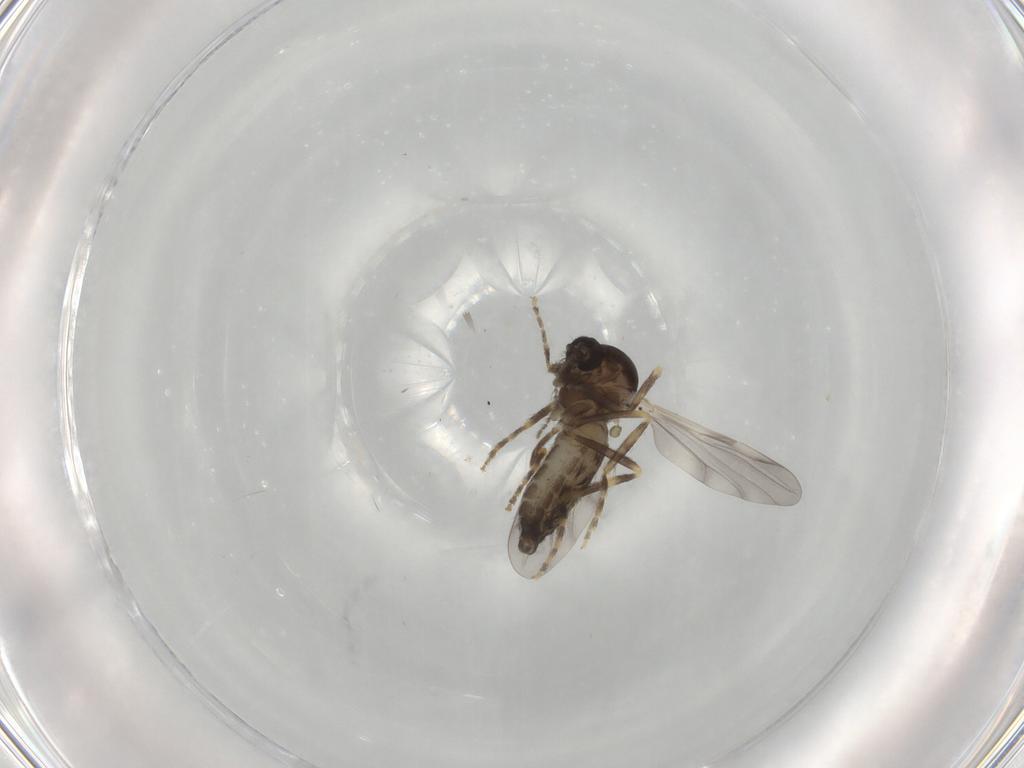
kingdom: Animalia
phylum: Arthropoda
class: Insecta
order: Diptera
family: Ceratopogonidae
